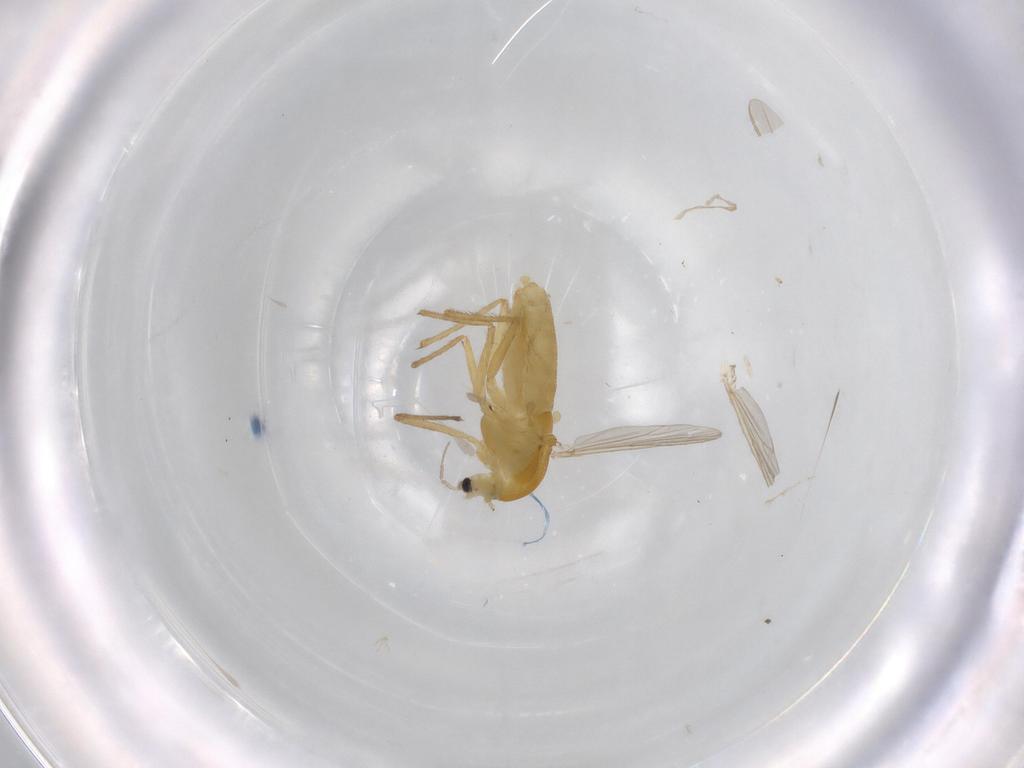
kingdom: Animalia
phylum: Arthropoda
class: Insecta
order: Diptera
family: Chironomidae
